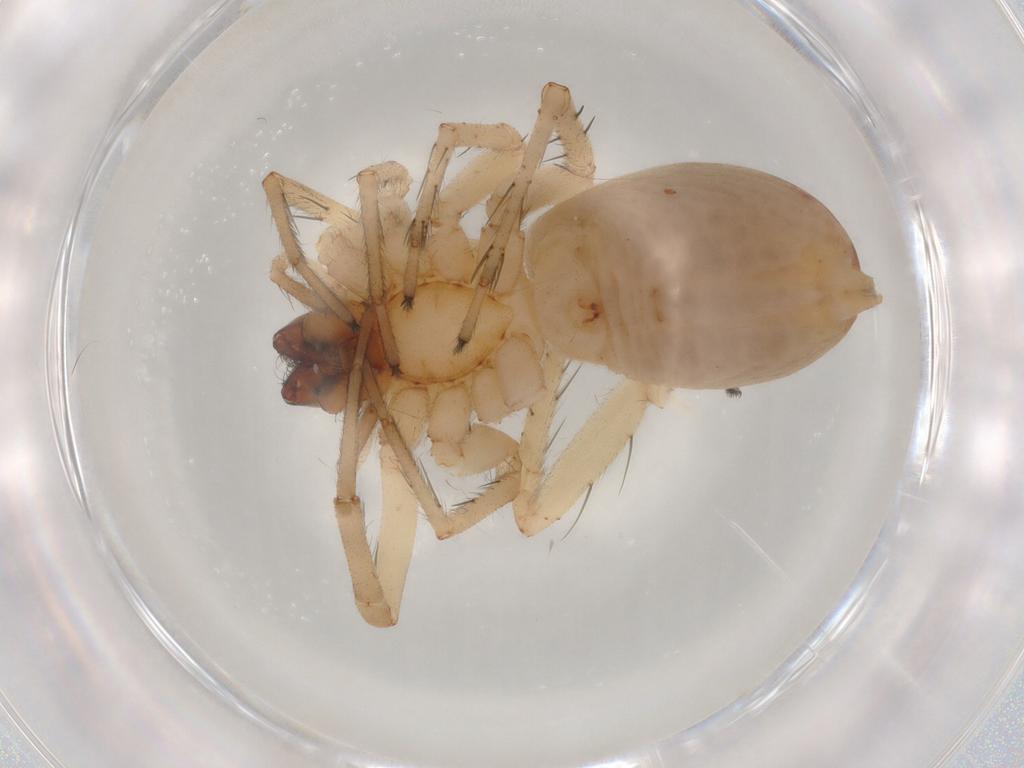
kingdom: Animalia
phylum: Arthropoda
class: Arachnida
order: Araneae
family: Anyphaenidae
